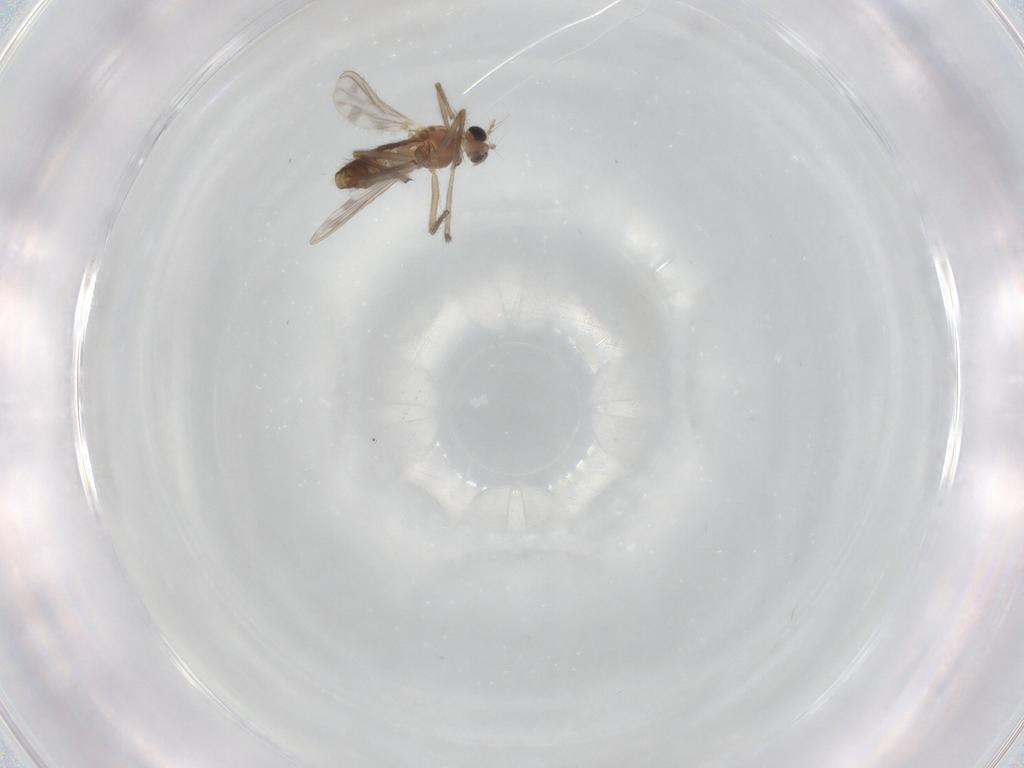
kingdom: Animalia
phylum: Arthropoda
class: Insecta
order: Diptera
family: Chironomidae
